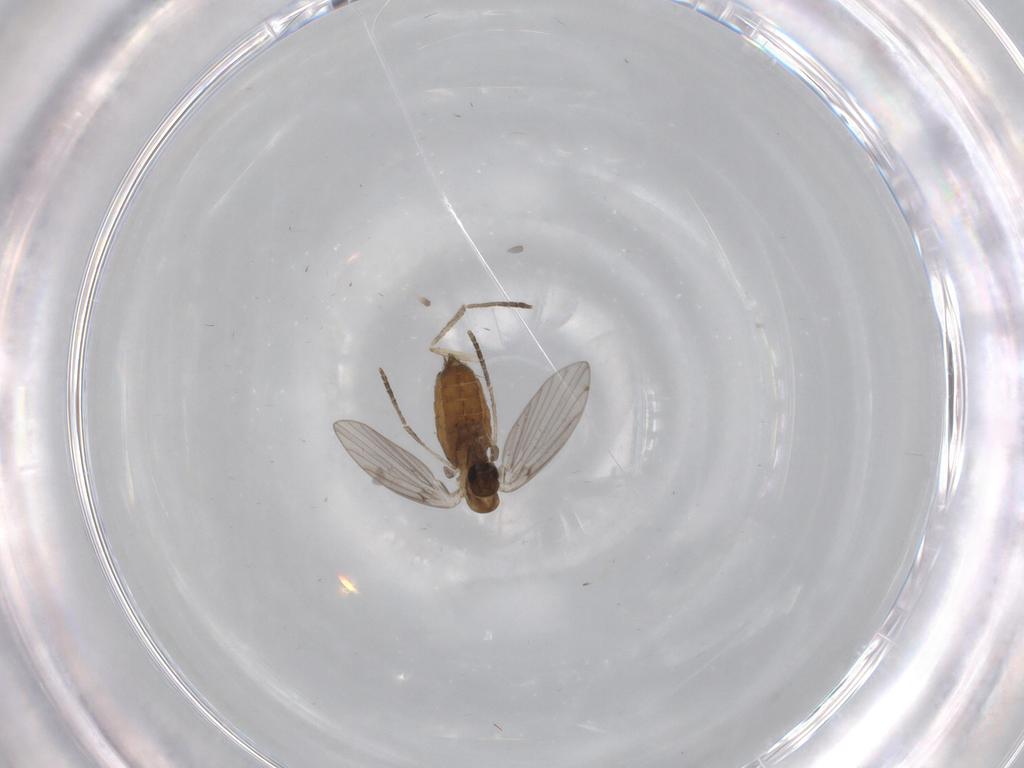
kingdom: Animalia
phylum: Arthropoda
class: Insecta
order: Diptera
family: Psychodidae
